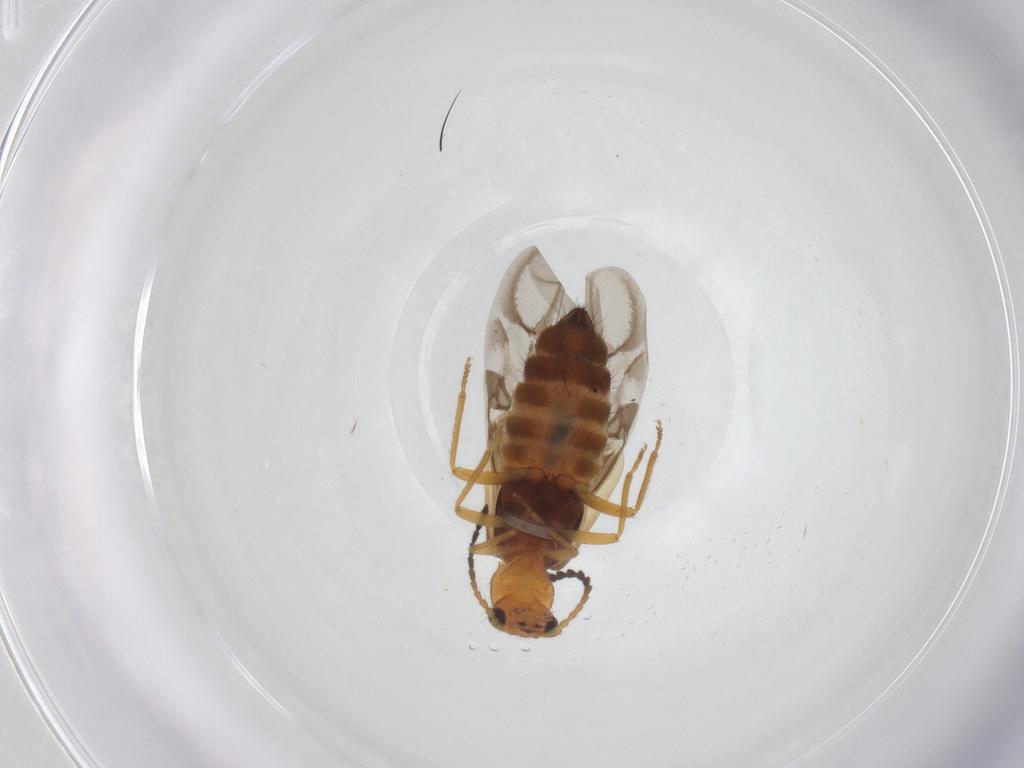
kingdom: Animalia
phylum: Arthropoda
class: Insecta
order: Coleoptera
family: Melyridae
